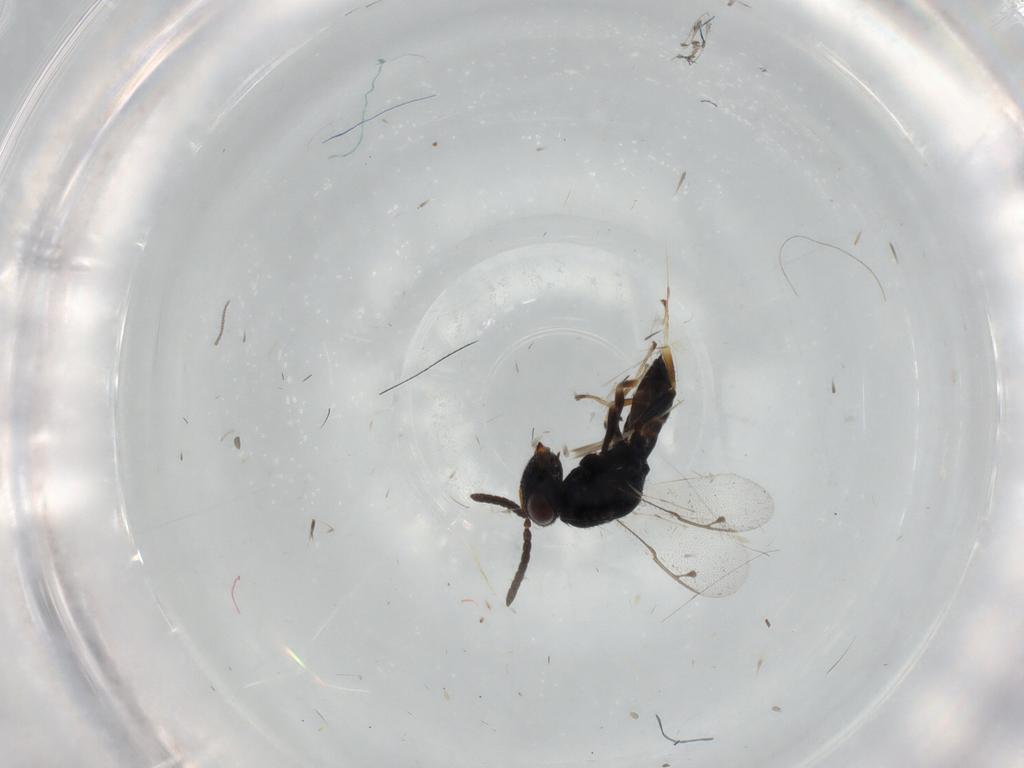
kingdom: Animalia
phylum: Arthropoda
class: Insecta
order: Hymenoptera
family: Pteromalidae
